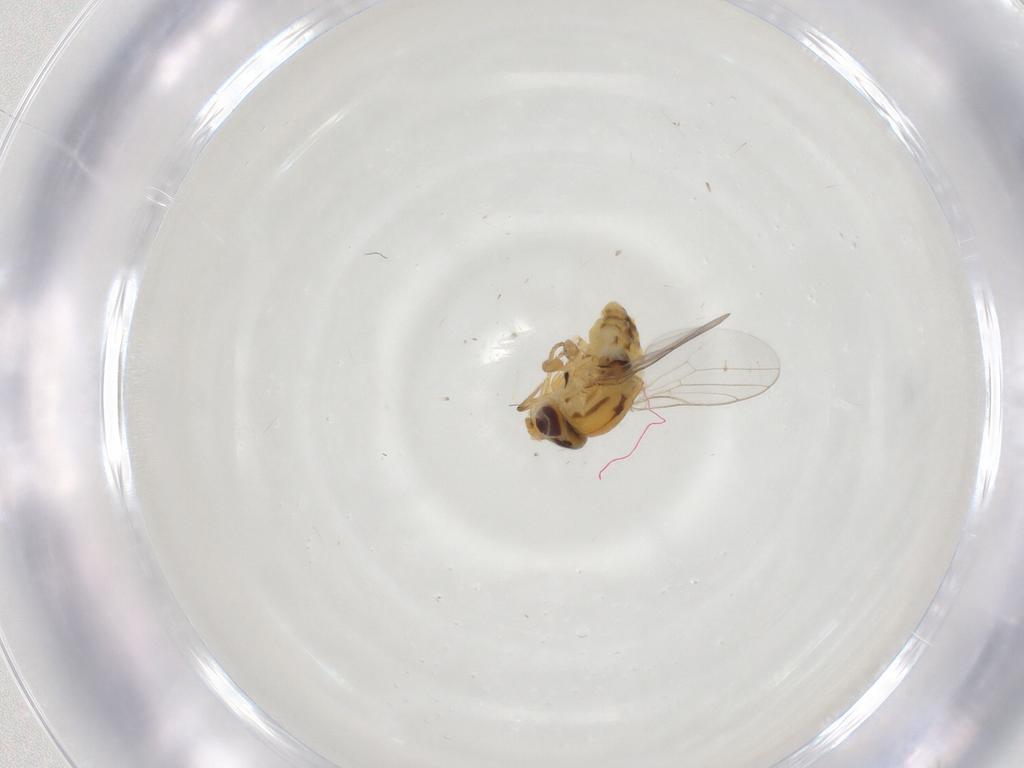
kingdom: Animalia
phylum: Arthropoda
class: Insecta
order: Diptera
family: Chloropidae
